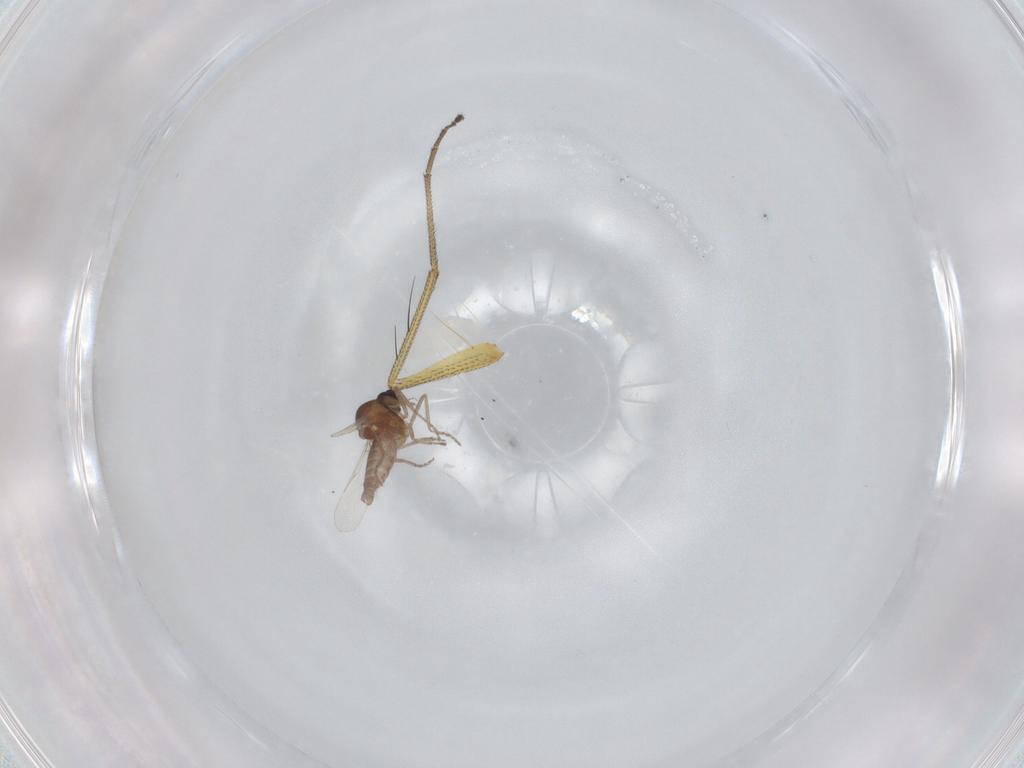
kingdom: Animalia
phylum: Arthropoda
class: Insecta
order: Diptera
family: Ceratopogonidae
